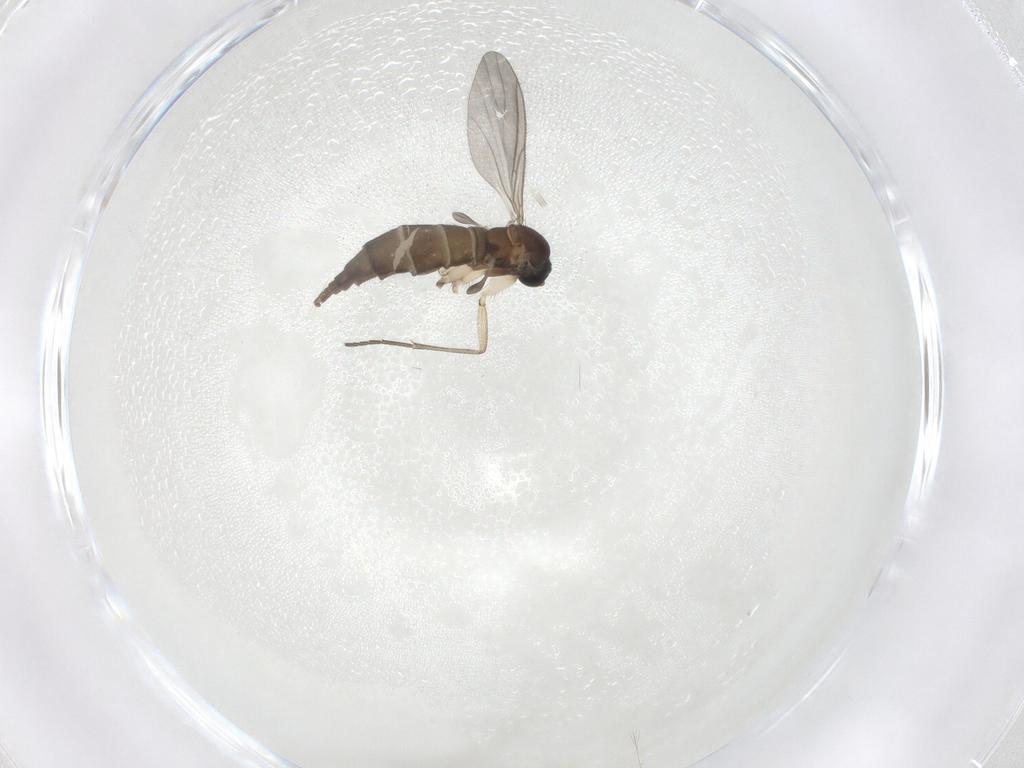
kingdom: Animalia
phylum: Arthropoda
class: Insecta
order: Diptera
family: Sciaridae
